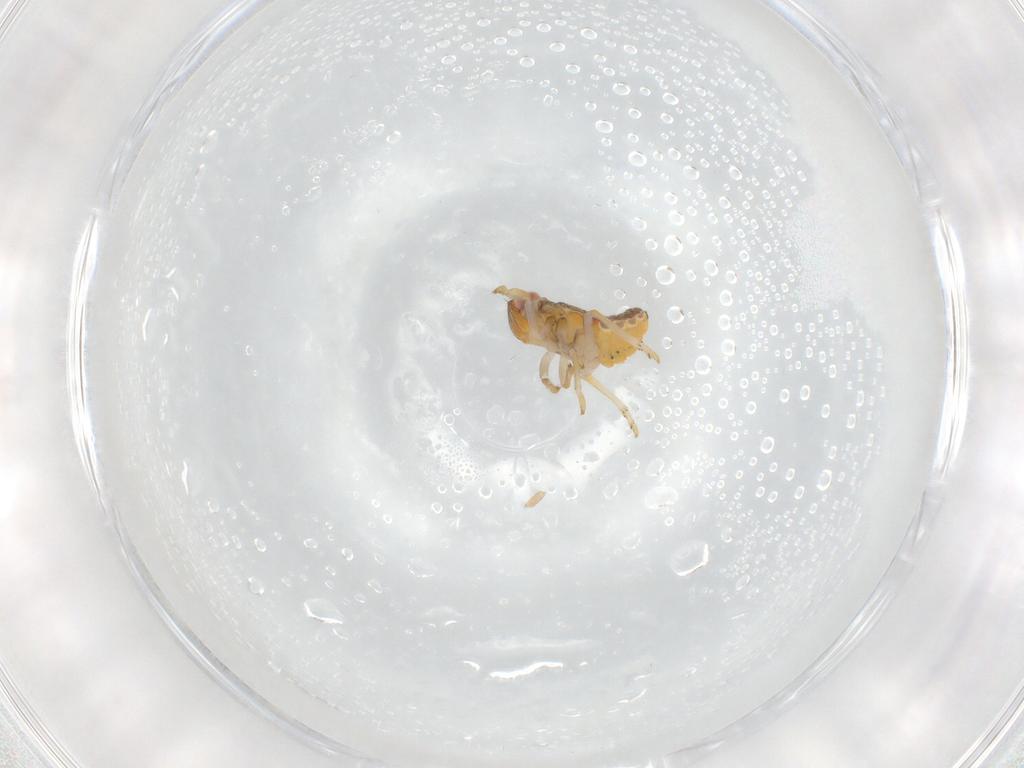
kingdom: Animalia
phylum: Arthropoda
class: Insecta
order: Hemiptera
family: Issidae
